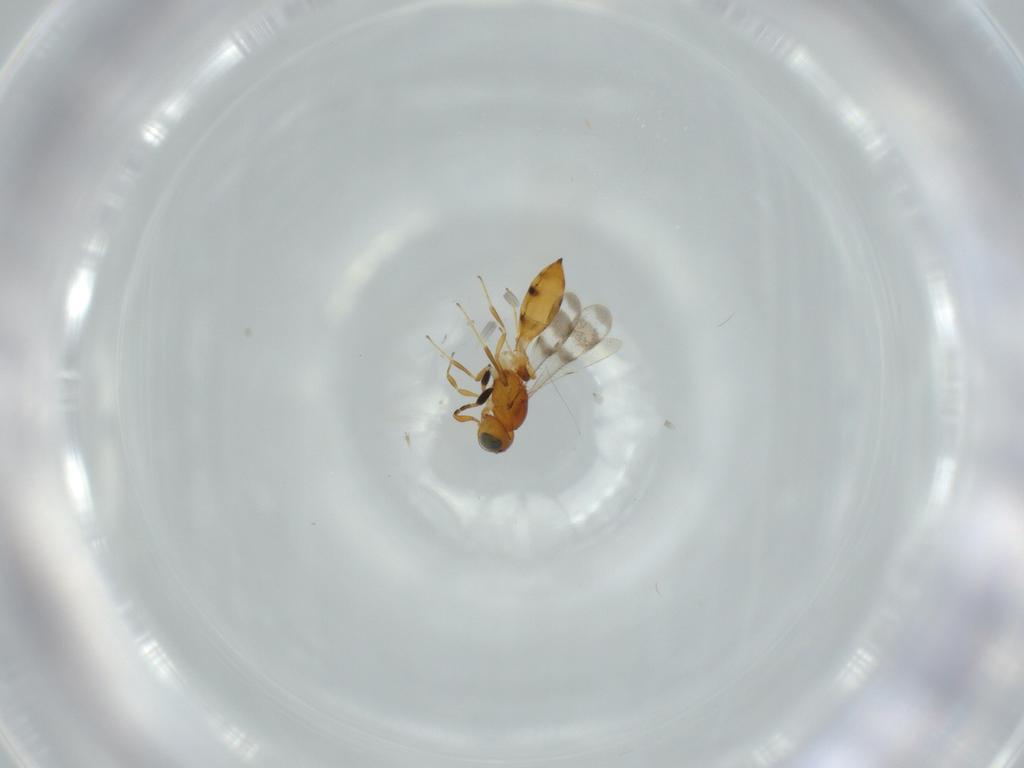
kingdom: Animalia
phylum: Arthropoda
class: Insecta
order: Hymenoptera
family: Scelionidae
